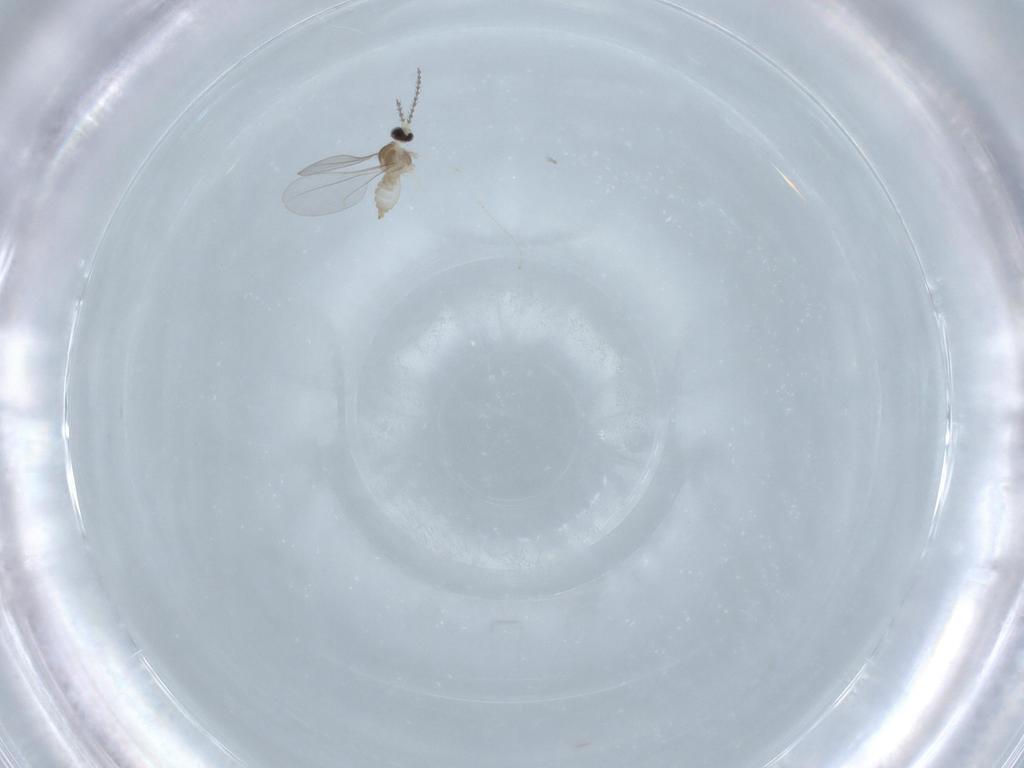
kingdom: Animalia
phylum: Arthropoda
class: Insecta
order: Diptera
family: Cecidomyiidae
